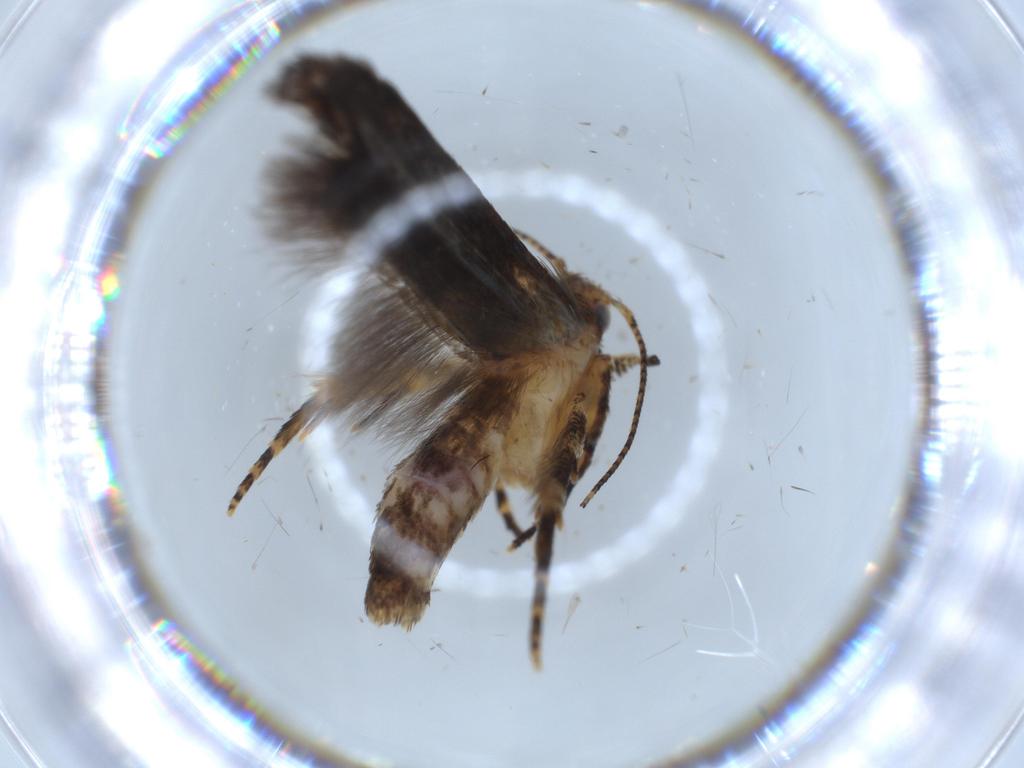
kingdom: Animalia
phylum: Arthropoda
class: Insecta
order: Lepidoptera
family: Gelechiidae
